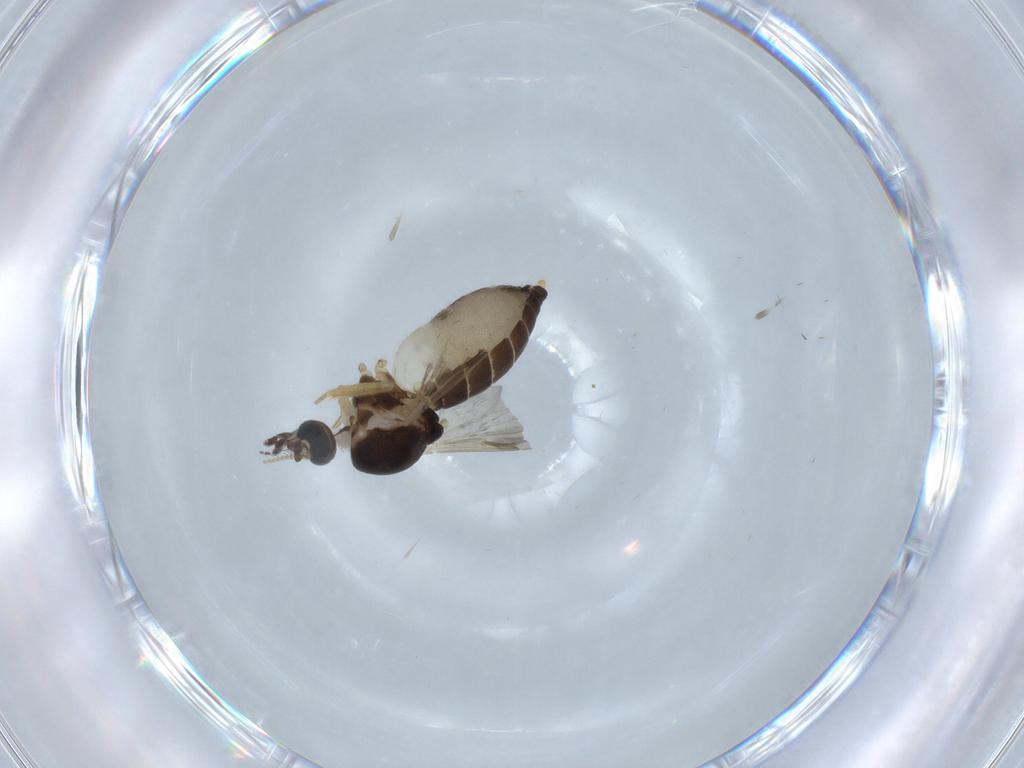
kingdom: Animalia
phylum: Arthropoda
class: Insecta
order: Diptera
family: Ceratopogonidae
